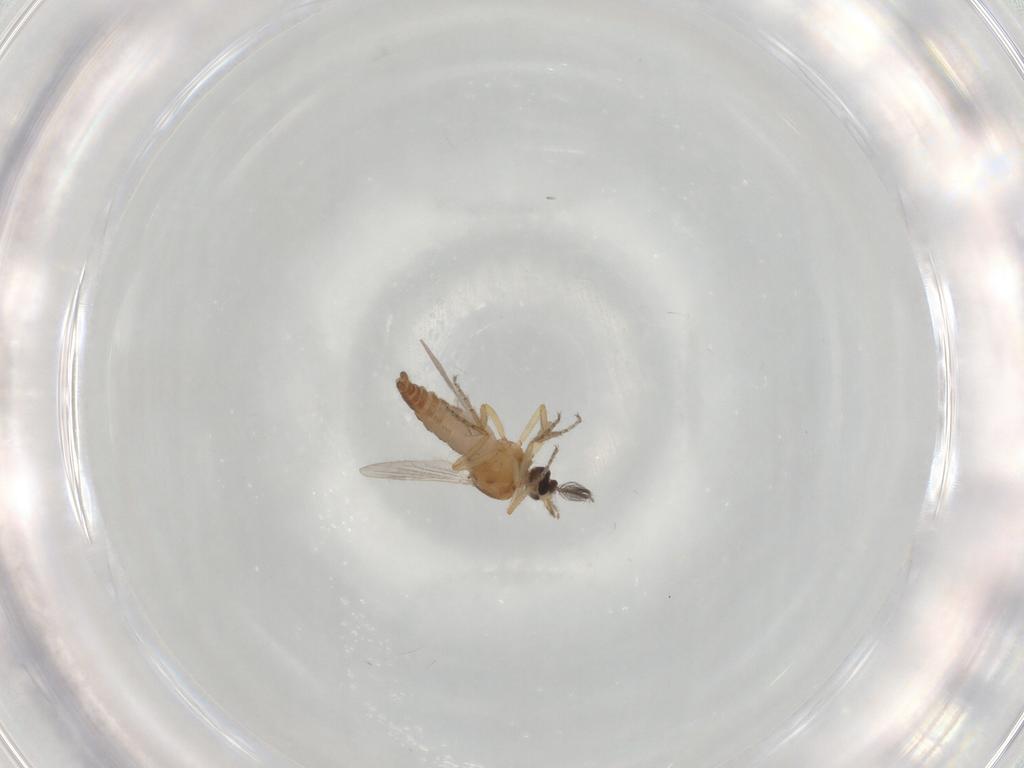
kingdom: Animalia
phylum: Arthropoda
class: Insecta
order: Diptera
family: Ceratopogonidae
